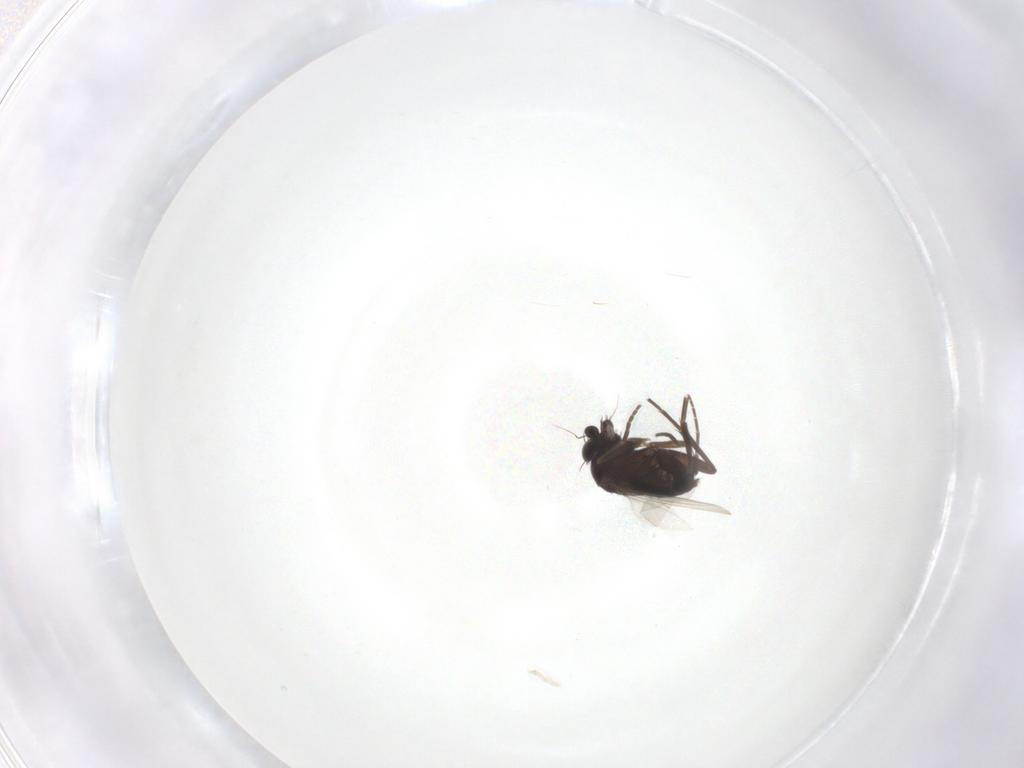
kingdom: Animalia
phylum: Arthropoda
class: Insecta
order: Diptera
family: Phoridae
